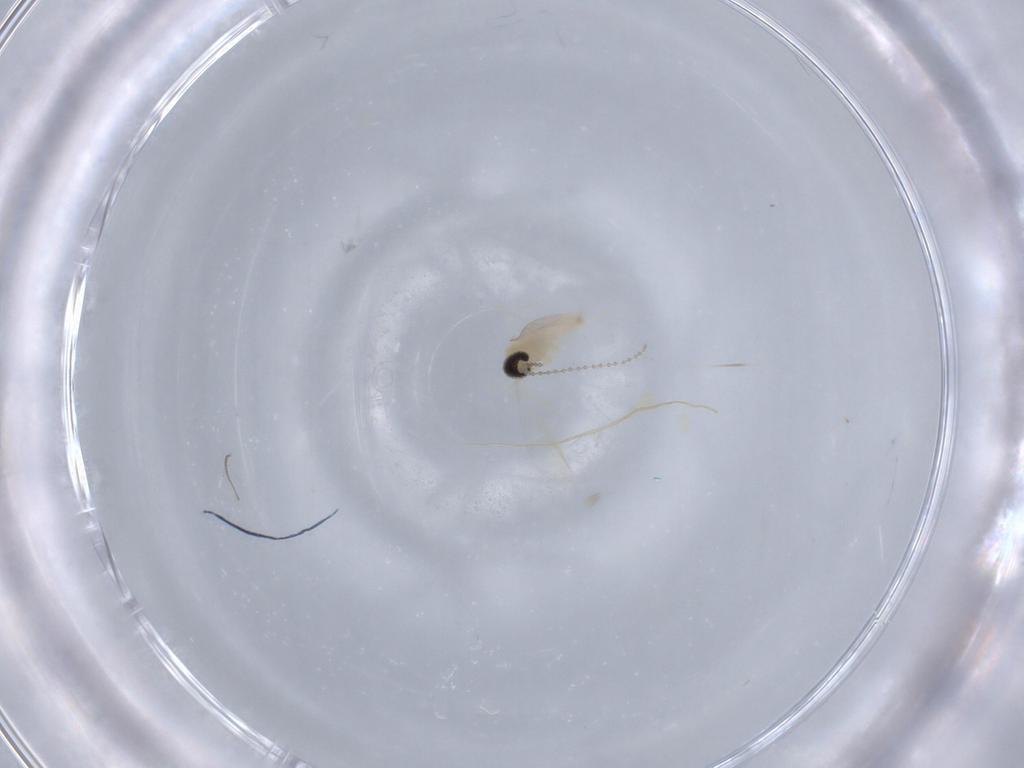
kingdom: Animalia
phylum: Arthropoda
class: Insecta
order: Diptera
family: Cecidomyiidae
